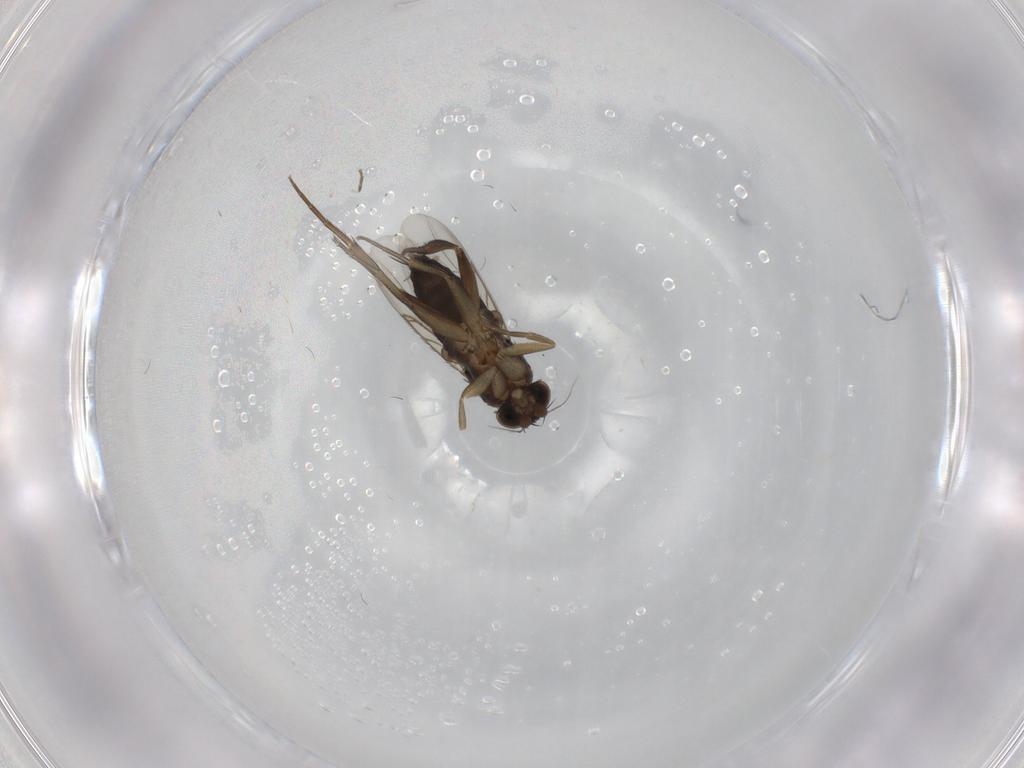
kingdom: Animalia
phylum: Arthropoda
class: Insecta
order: Diptera
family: Phoridae
